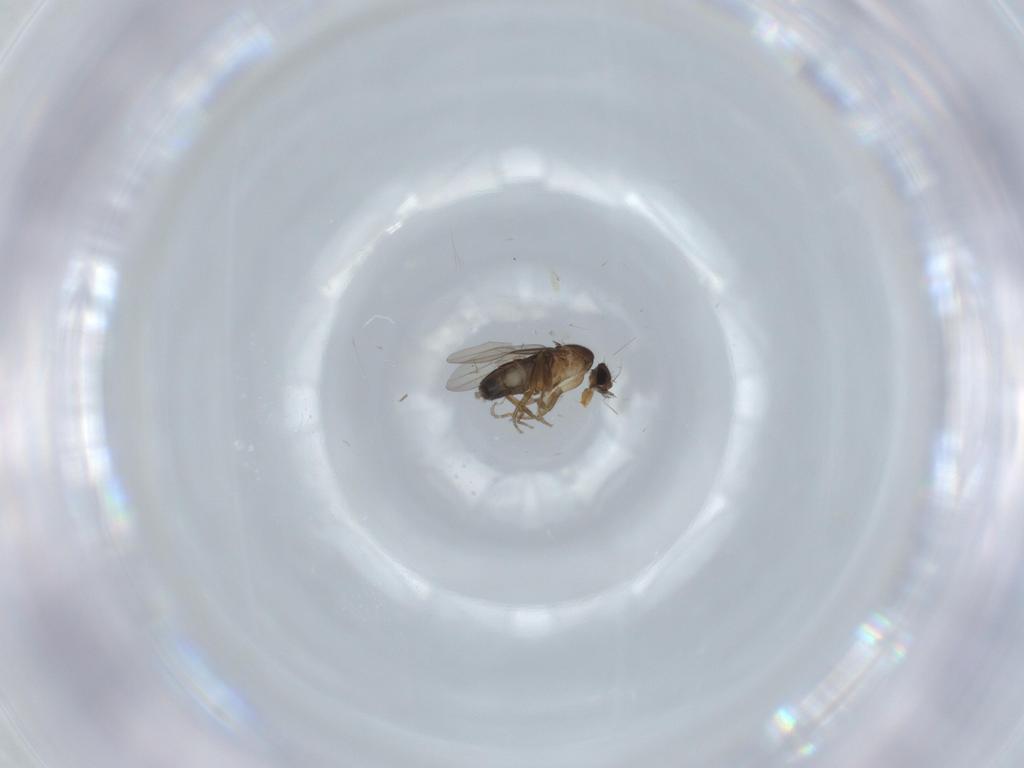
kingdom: Animalia
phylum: Arthropoda
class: Insecta
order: Diptera
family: Phoridae
